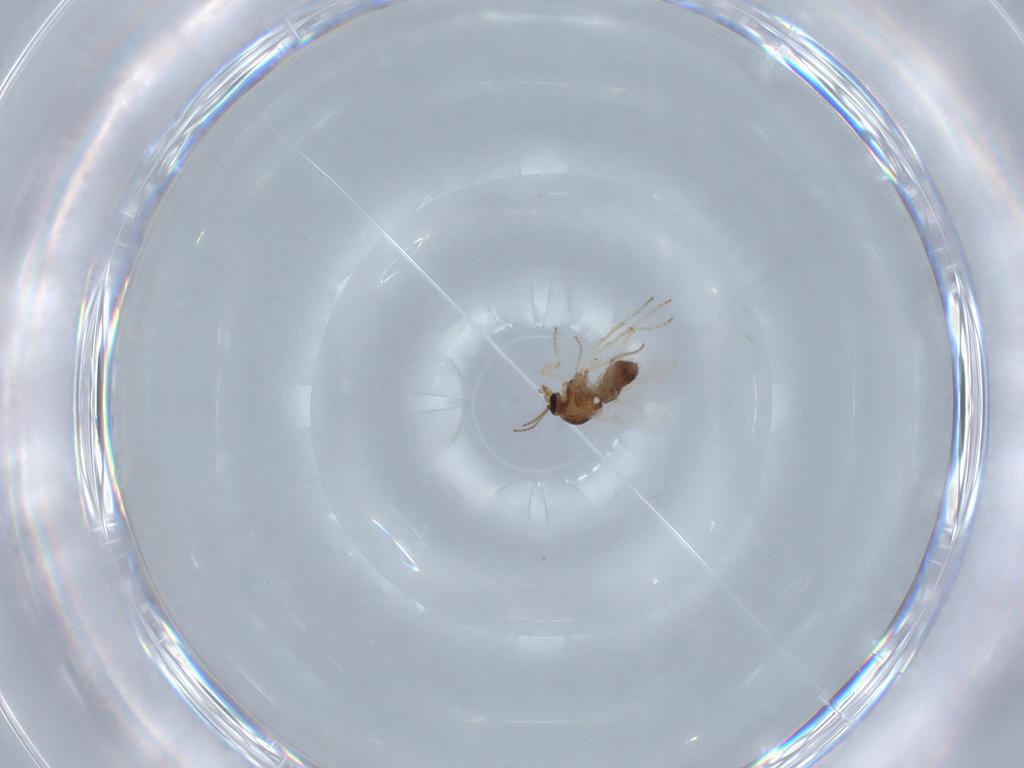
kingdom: Animalia
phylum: Arthropoda
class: Insecta
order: Diptera
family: Ceratopogonidae
